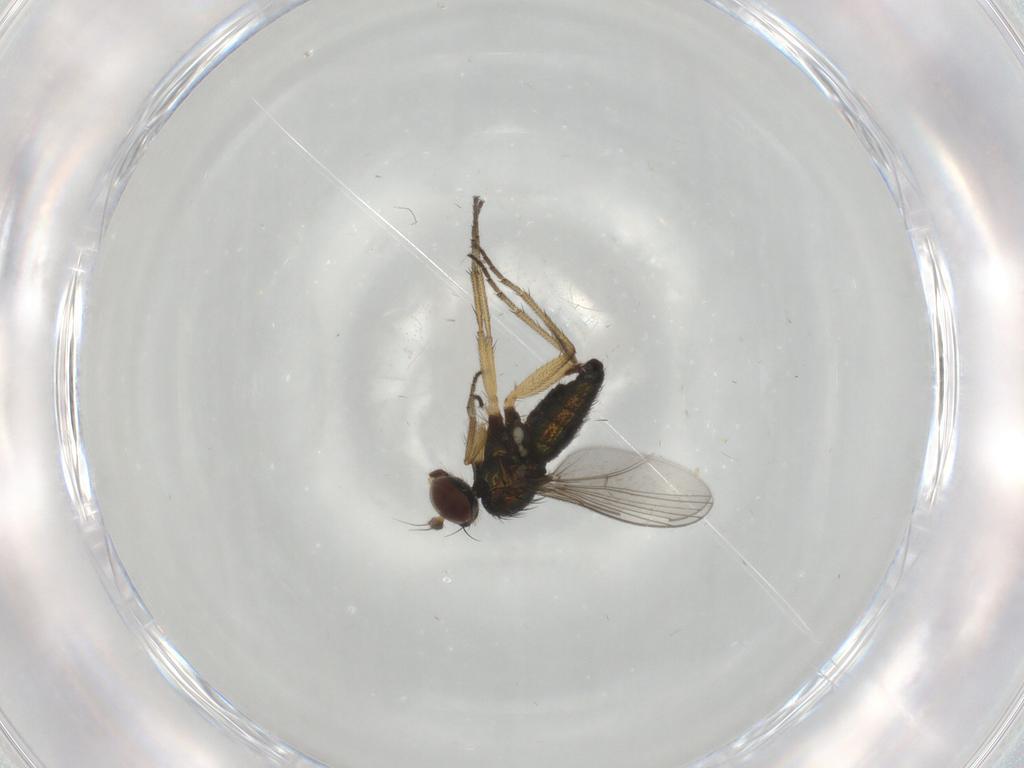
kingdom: Animalia
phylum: Arthropoda
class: Insecta
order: Diptera
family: Dolichopodidae
